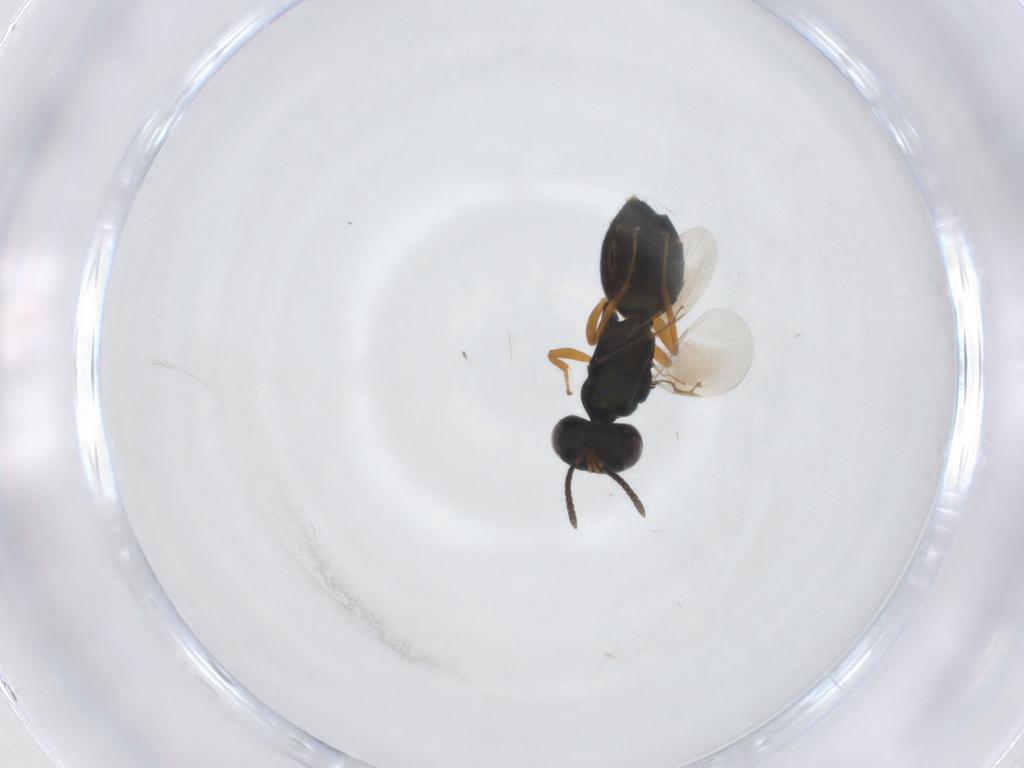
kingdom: Animalia
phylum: Arthropoda
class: Insecta
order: Hymenoptera
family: Pteromalidae
